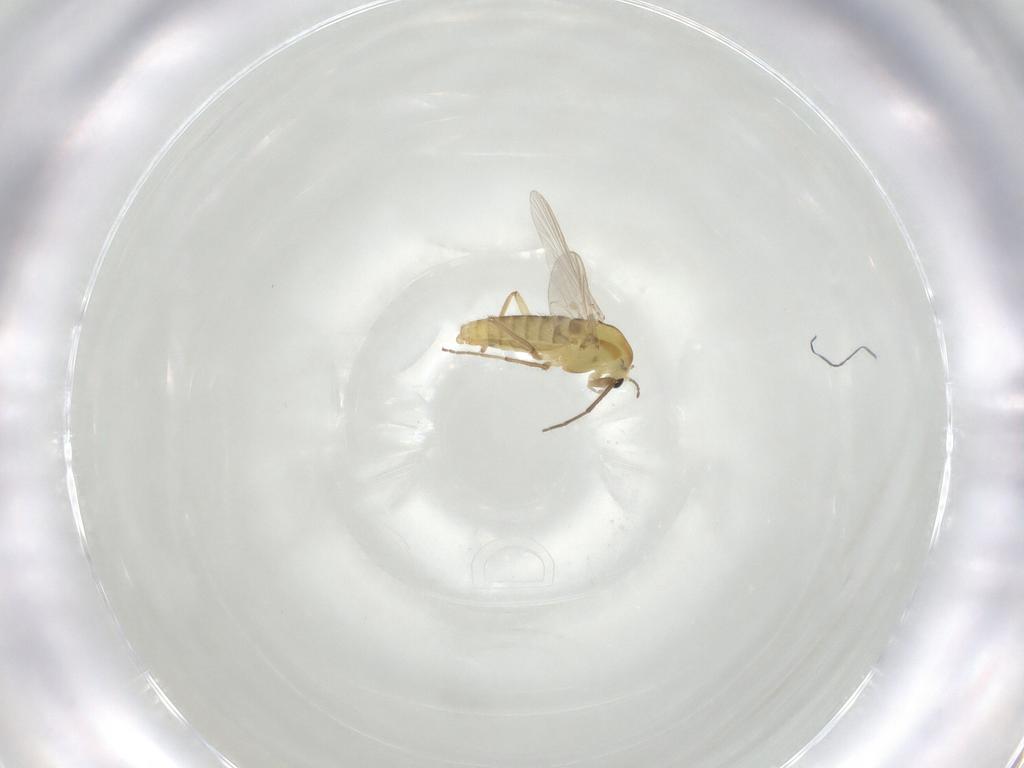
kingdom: Animalia
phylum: Arthropoda
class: Insecta
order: Diptera
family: Chironomidae
